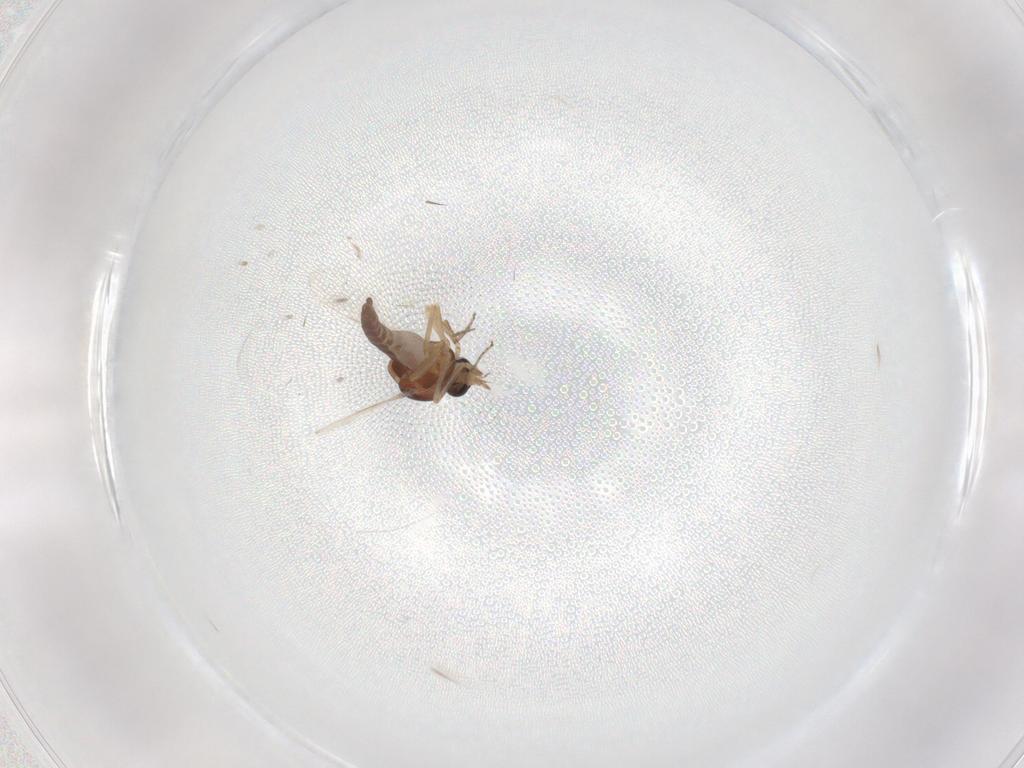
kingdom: Animalia
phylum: Arthropoda
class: Insecta
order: Diptera
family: Ceratopogonidae
